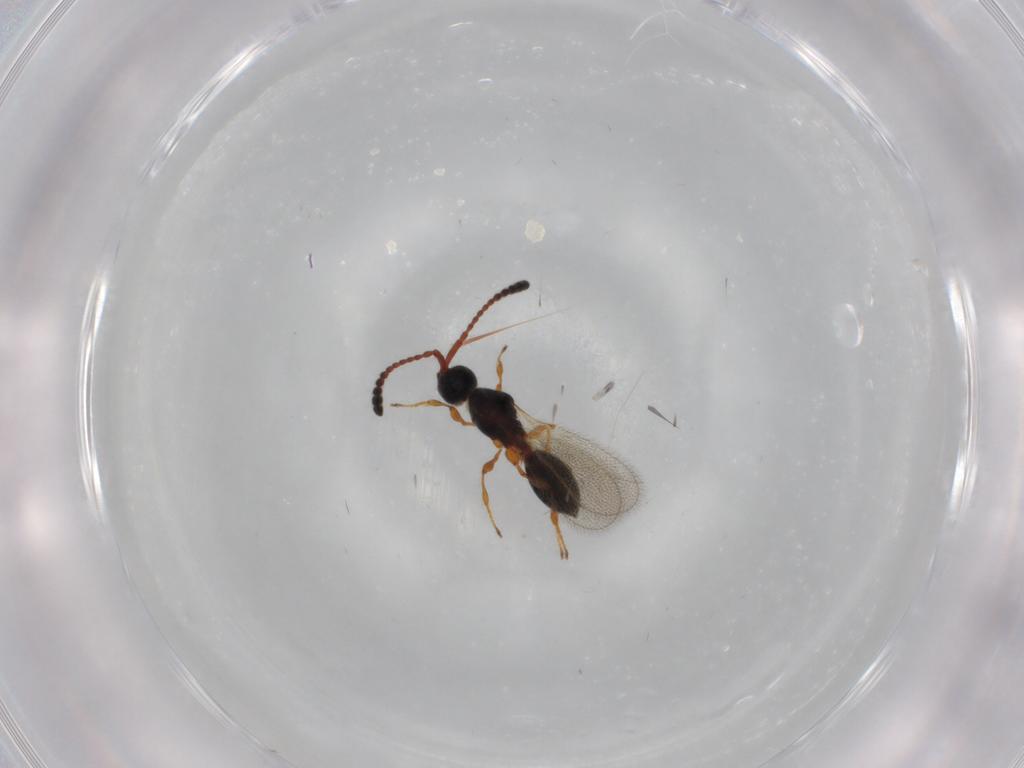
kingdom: Animalia
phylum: Arthropoda
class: Insecta
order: Hymenoptera
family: Diapriidae
